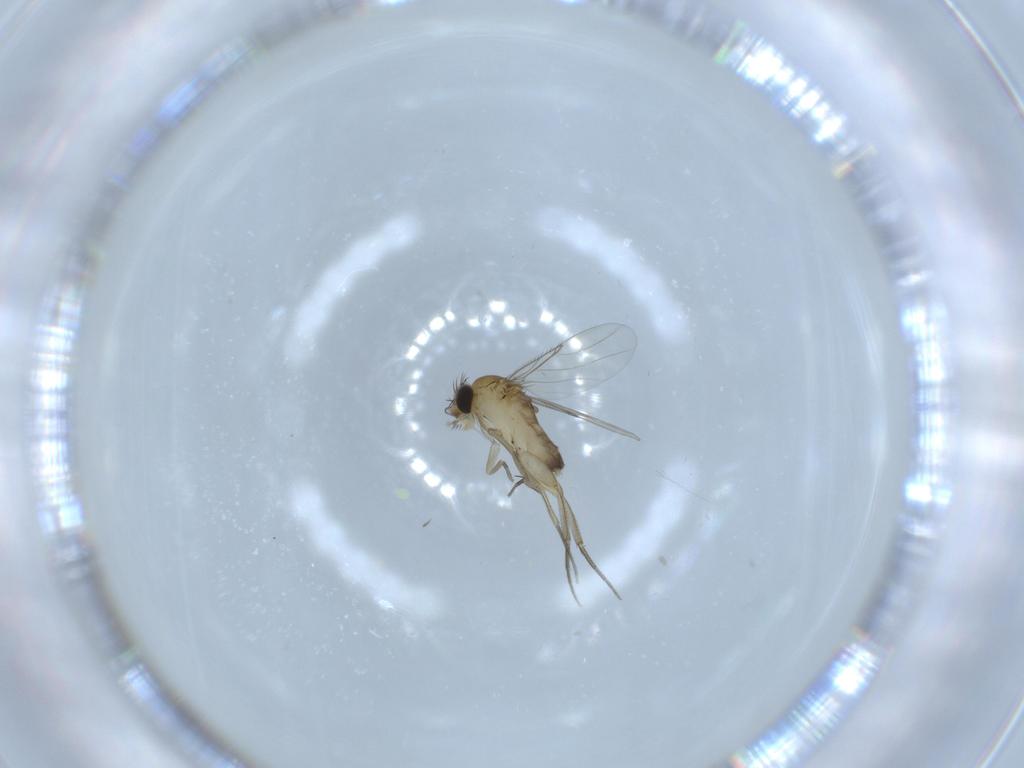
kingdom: Animalia
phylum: Arthropoda
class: Insecta
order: Diptera
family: Phoridae
